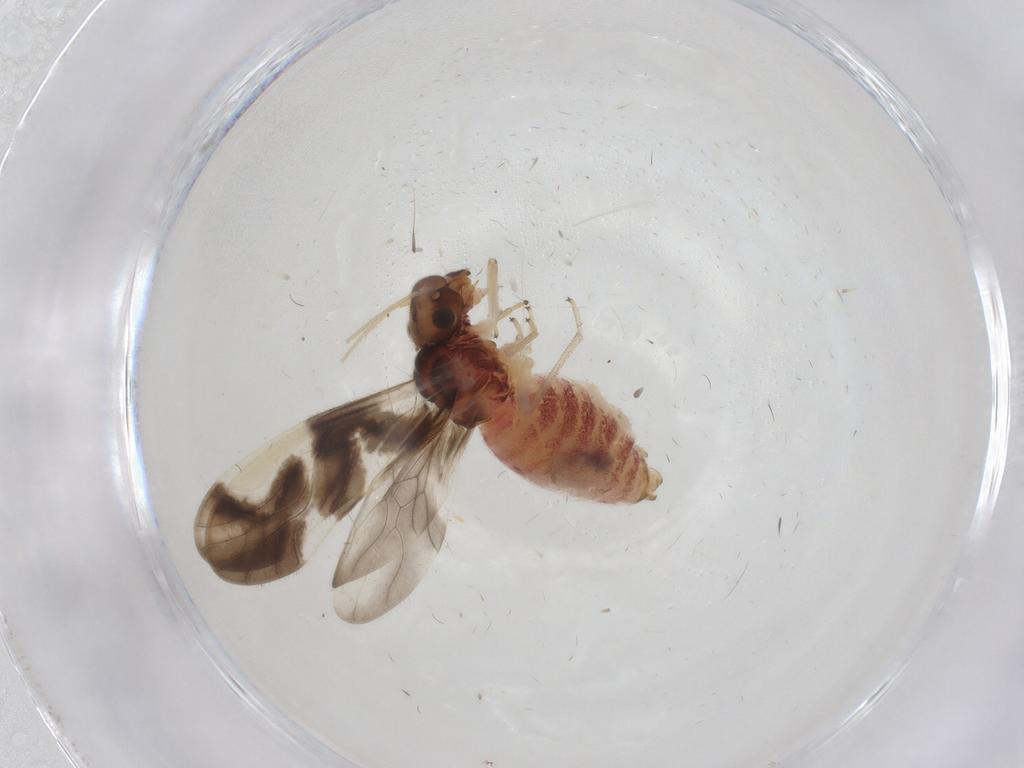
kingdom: Animalia
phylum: Arthropoda
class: Insecta
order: Psocodea
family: Caeciliusidae
